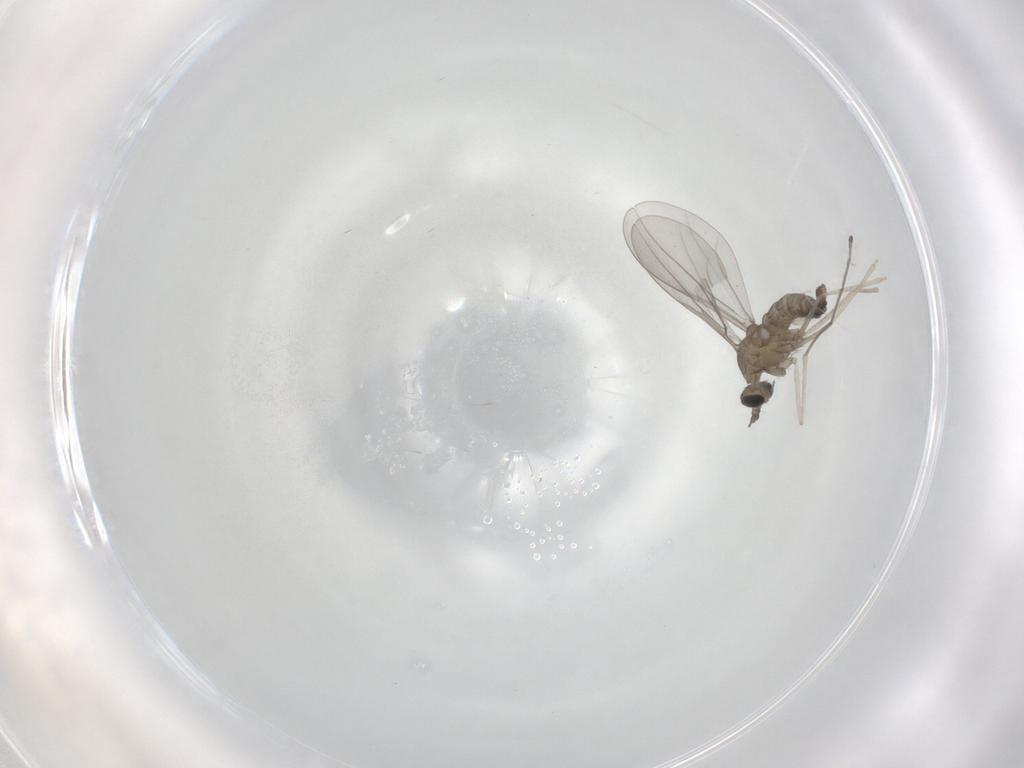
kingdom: Animalia
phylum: Arthropoda
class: Insecta
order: Diptera
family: Cecidomyiidae
